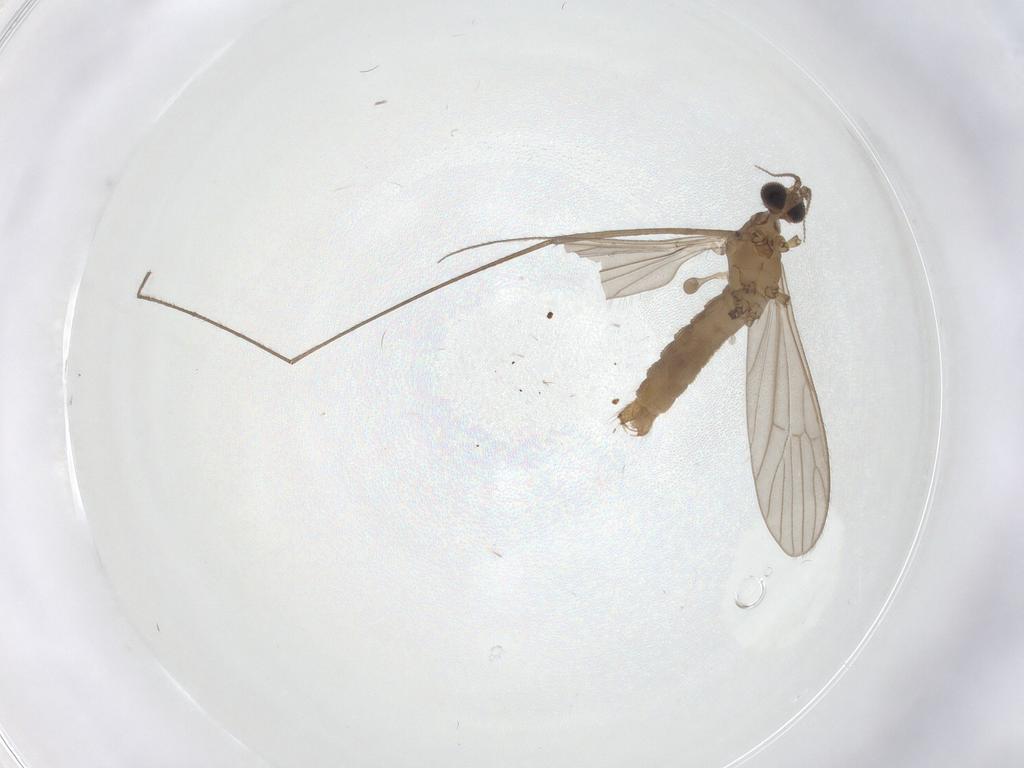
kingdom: Animalia
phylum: Arthropoda
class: Insecta
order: Diptera
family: Limoniidae
